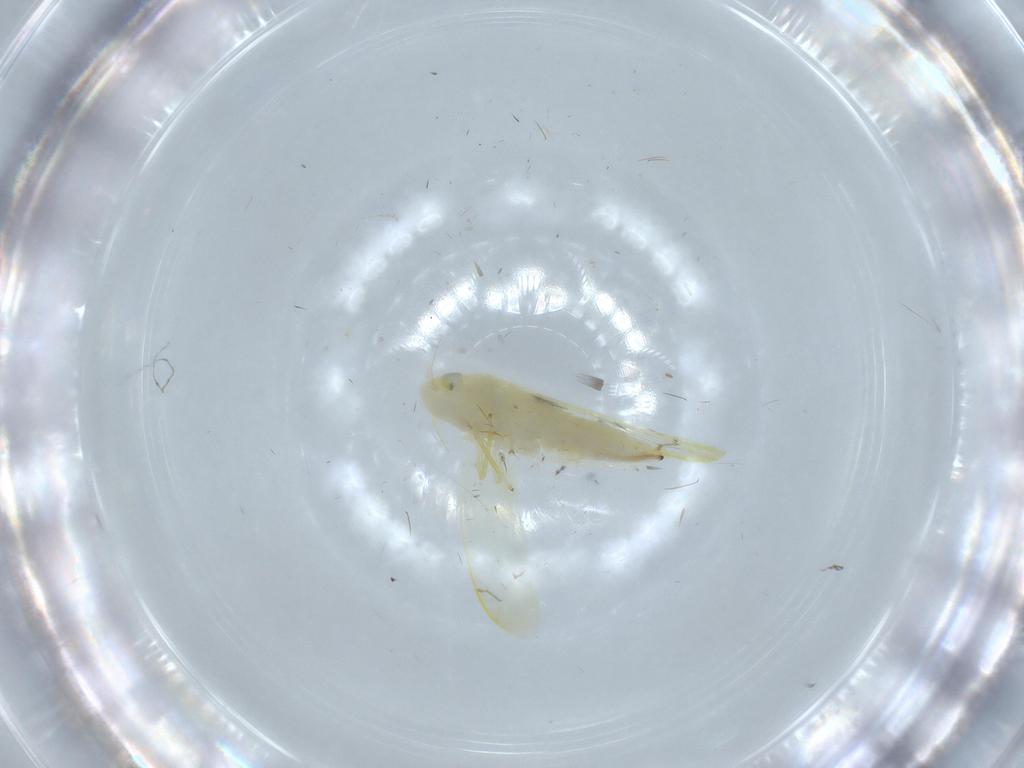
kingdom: Animalia
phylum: Arthropoda
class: Insecta
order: Hemiptera
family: Cicadellidae
